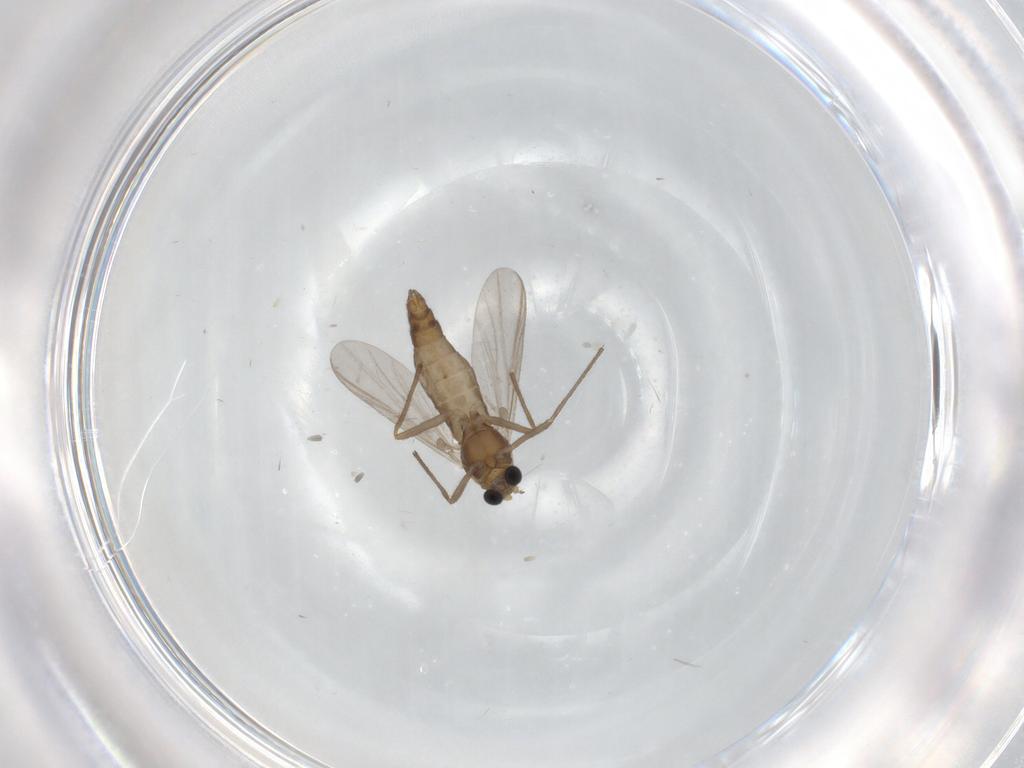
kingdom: Animalia
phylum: Arthropoda
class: Insecta
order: Diptera
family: Chironomidae
